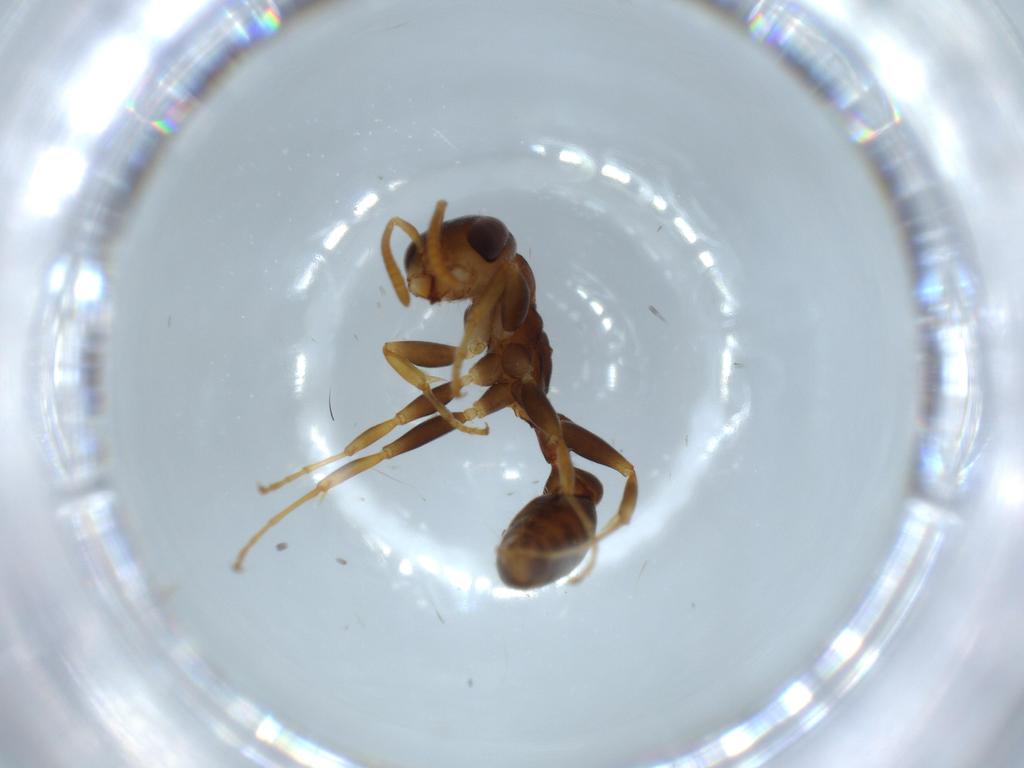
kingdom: Animalia
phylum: Arthropoda
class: Insecta
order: Hymenoptera
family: Formicidae
